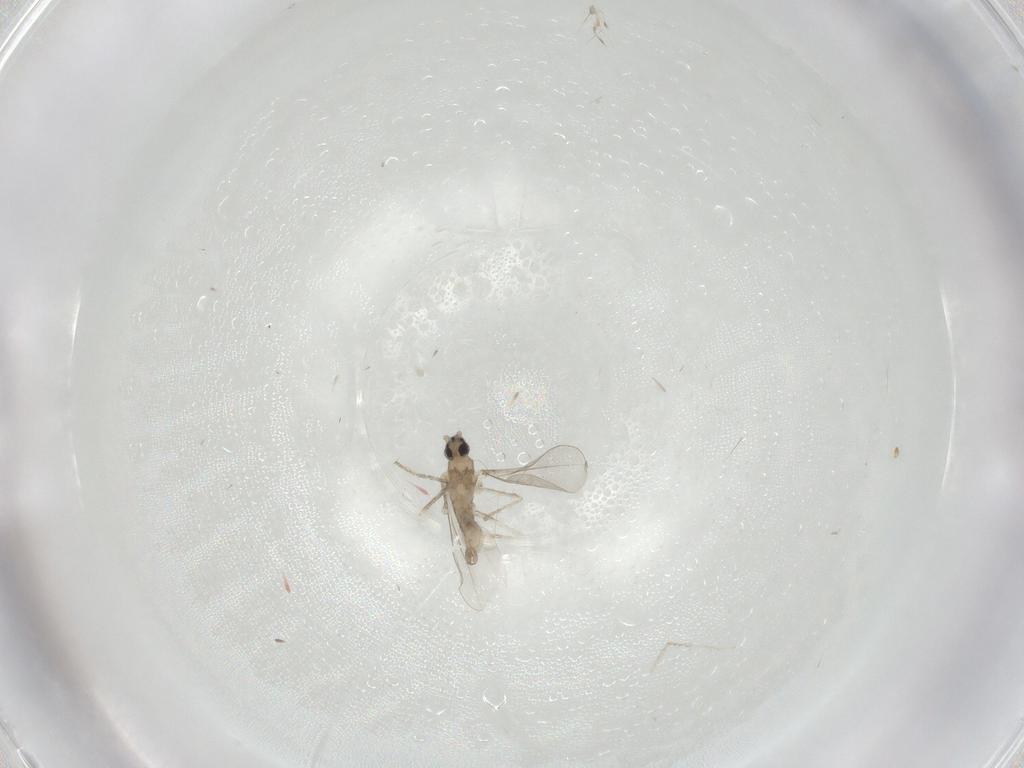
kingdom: Animalia
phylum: Arthropoda
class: Insecta
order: Diptera
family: Cecidomyiidae
